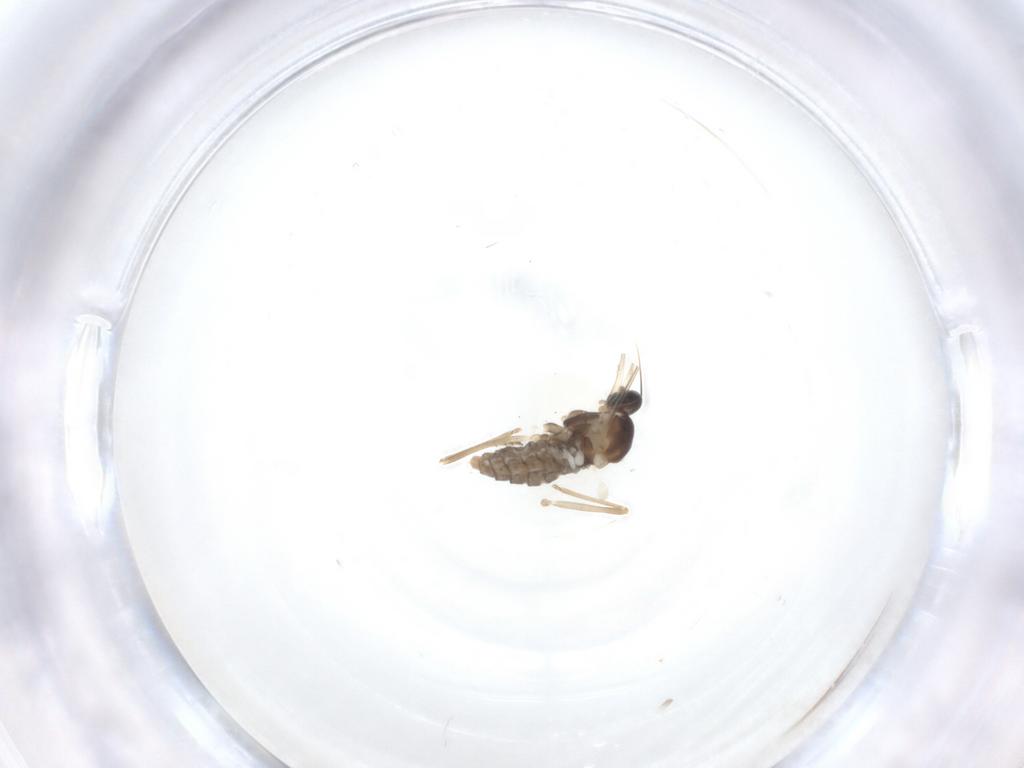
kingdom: Animalia
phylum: Arthropoda
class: Insecta
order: Diptera
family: Cecidomyiidae
